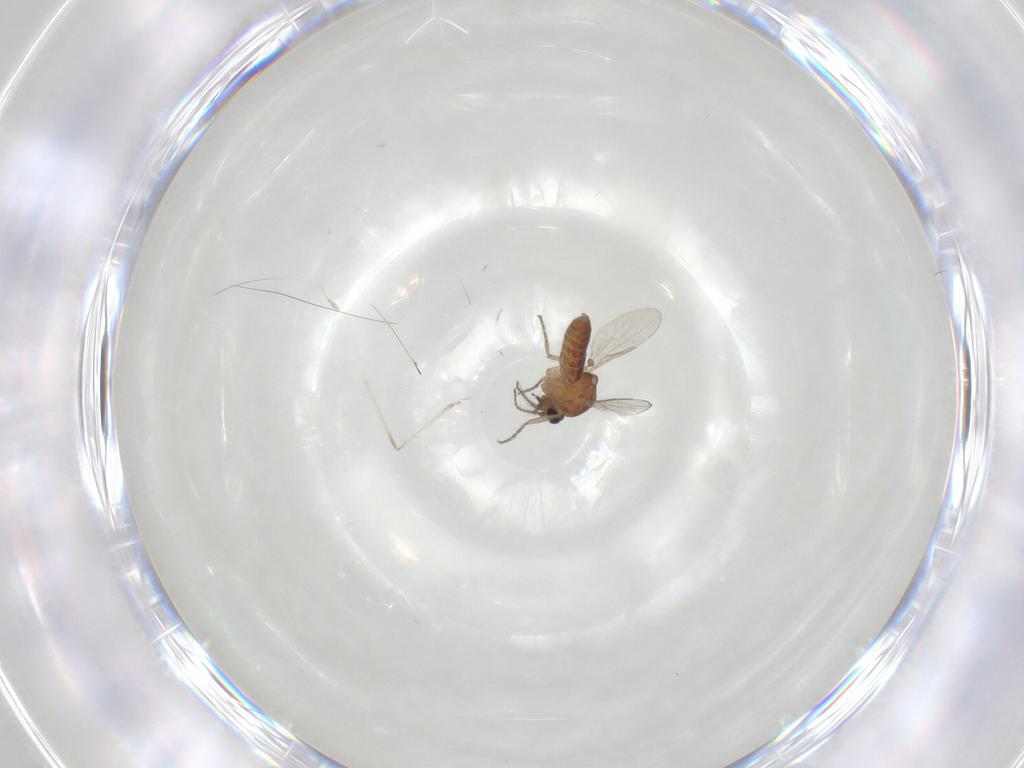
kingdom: Animalia
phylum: Arthropoda
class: Insecta
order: Diptera
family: Ceratopogonidae
